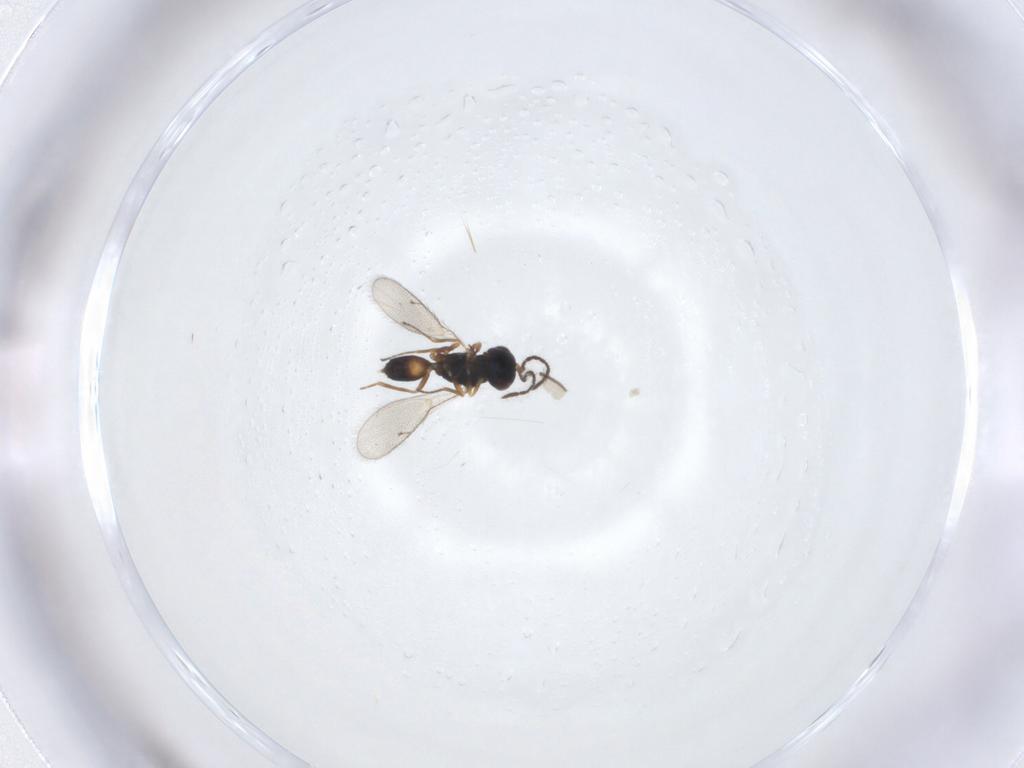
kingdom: Animalia
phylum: Arthropoda
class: Insecta
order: Hymenoptera
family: Pteromalidae
